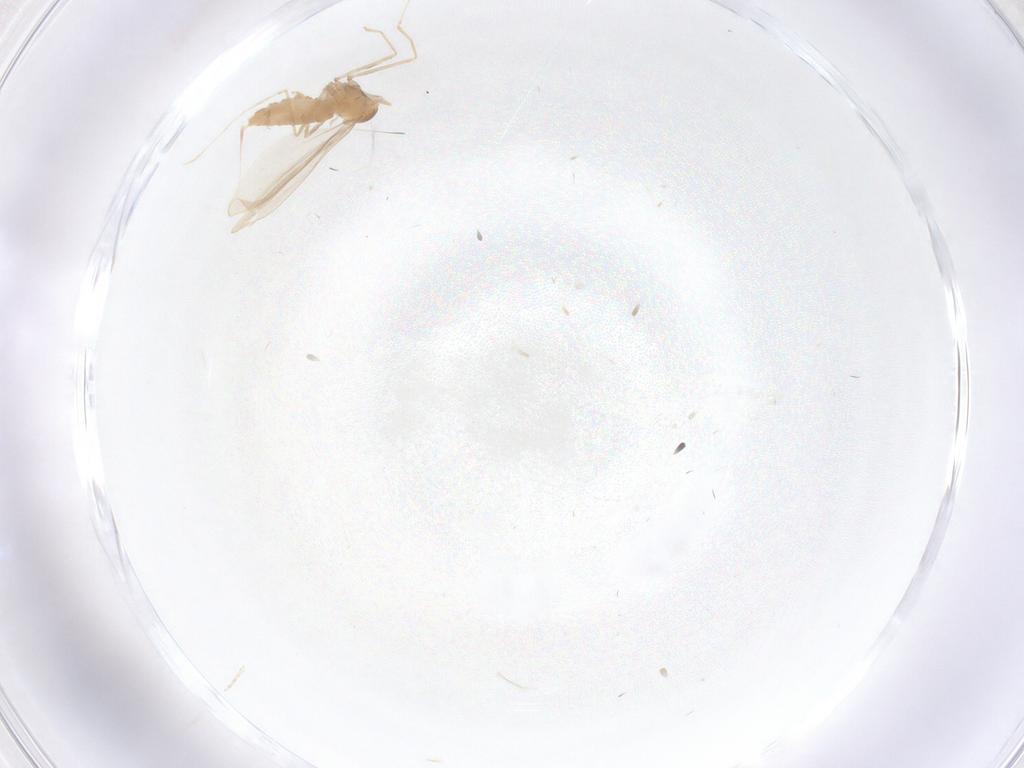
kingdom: Animalia
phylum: Arthropoda
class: Insecta
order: Diptera
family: Cecidomyiidae
